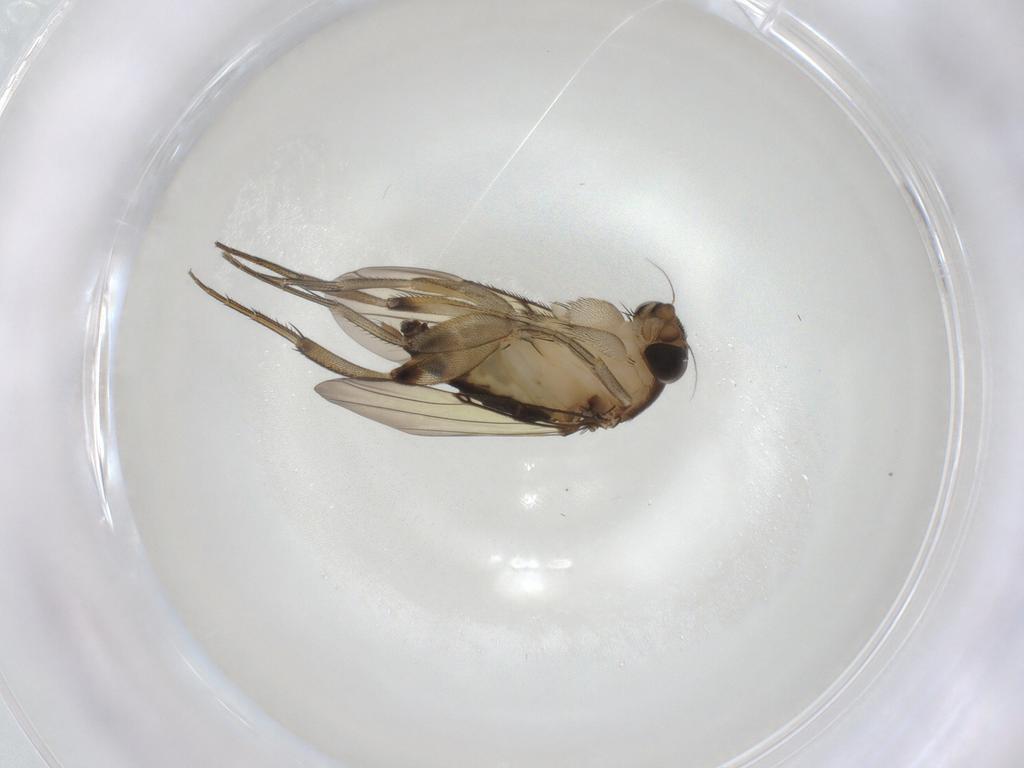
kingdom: Animalia
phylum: Arthropoda
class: Insecta
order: Diptera
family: Phoridae
